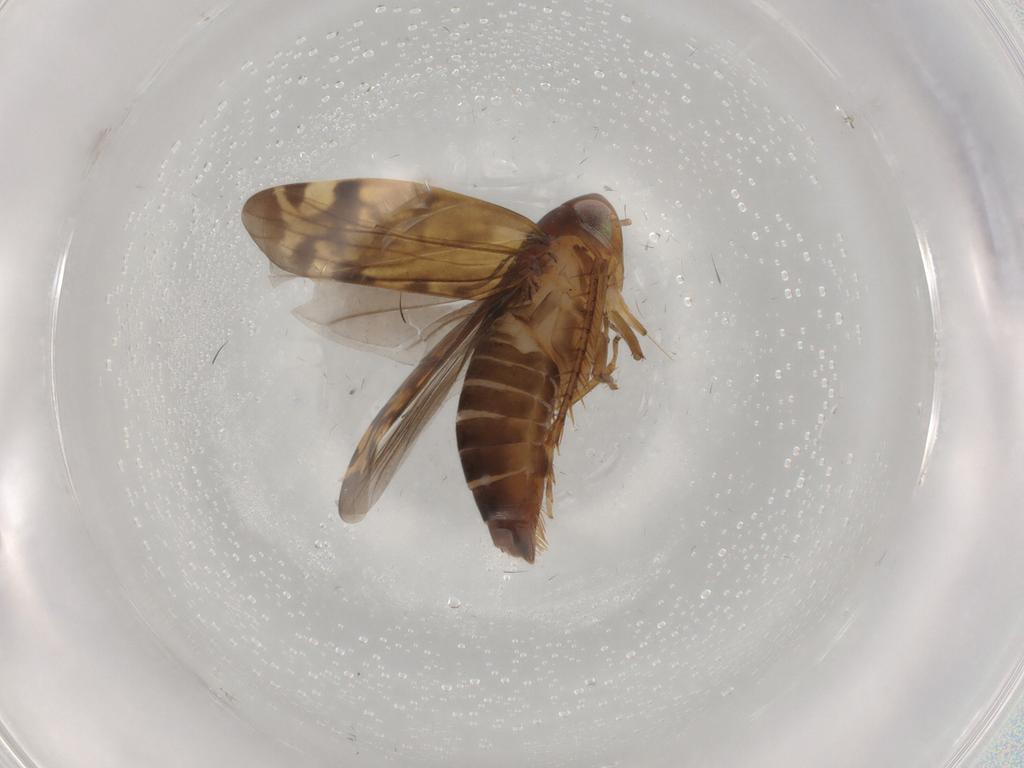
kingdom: Animalia
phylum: Arthropoda
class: Insecta
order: Hemiptera
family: Cicadellidae
